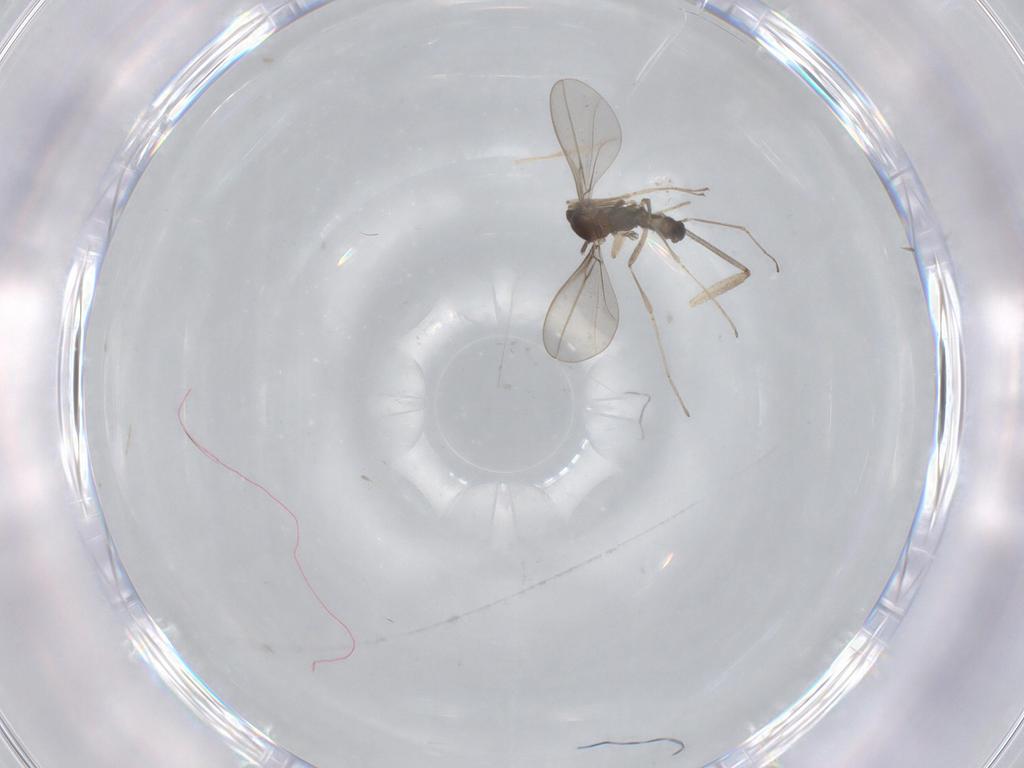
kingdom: Animalia
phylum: Arthropoda
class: Insecta
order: Diptera
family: Sciaridae
